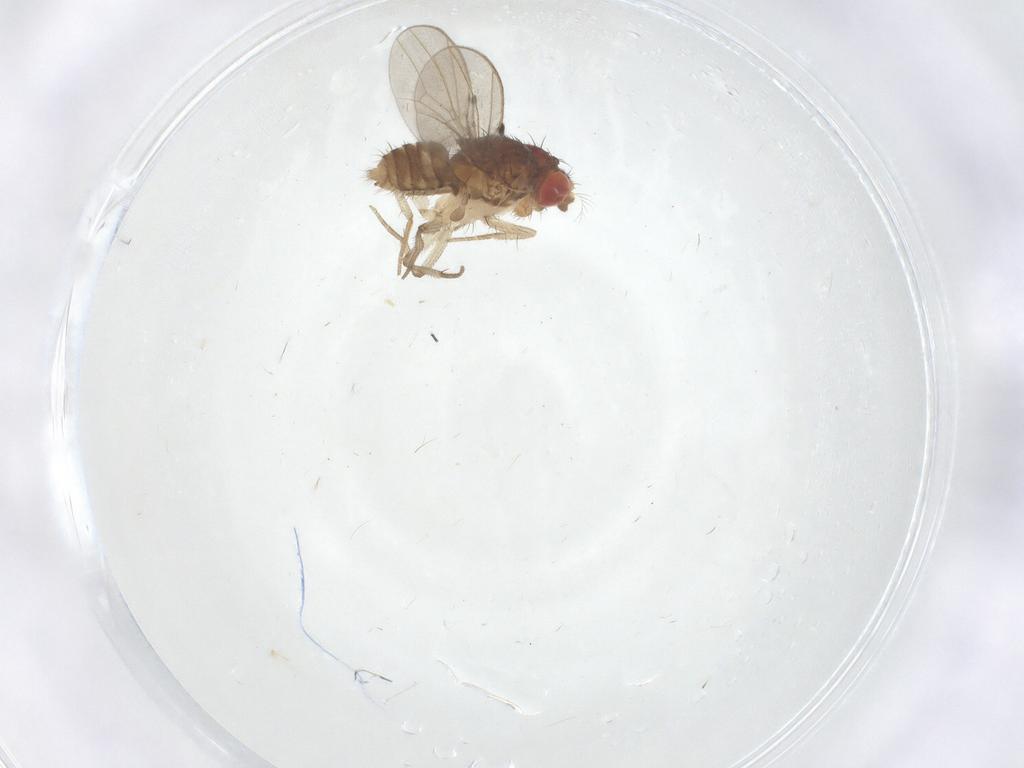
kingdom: Animalia
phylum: Arthropoda
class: Insecta
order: Diptera
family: Drosophilidae
